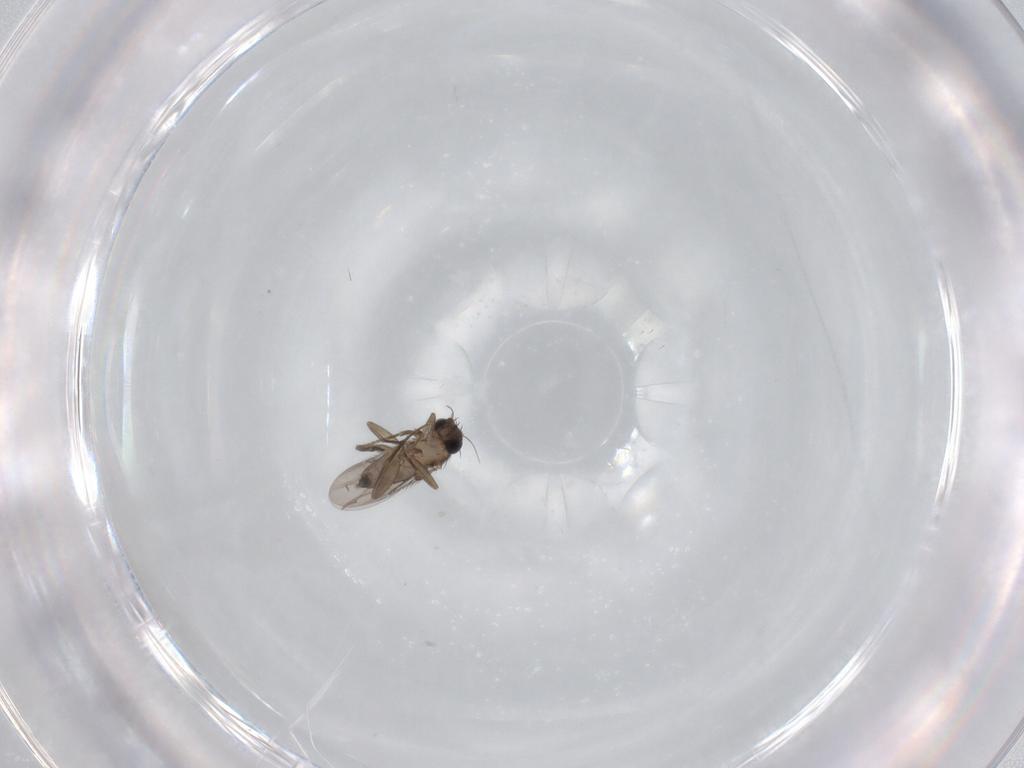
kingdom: Animalia
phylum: Arthropoda
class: Insecta
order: Diptera
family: Phoridae
